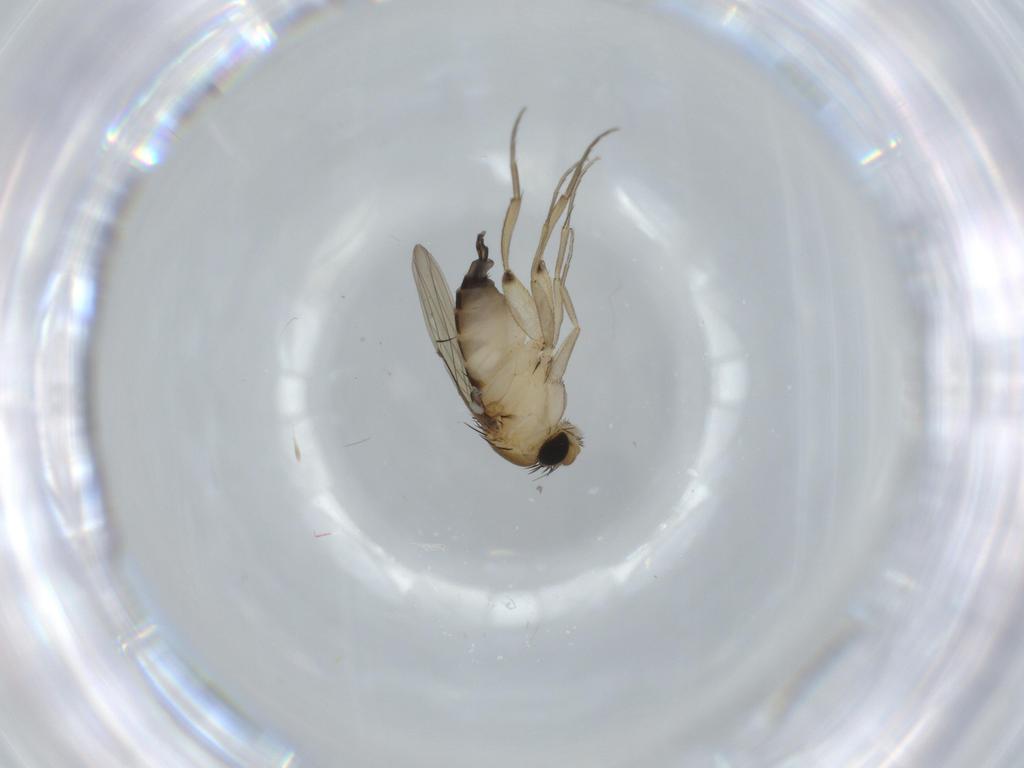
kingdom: Animalia
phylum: Arthropoda
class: Insecta
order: Diptera
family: Phoridae
